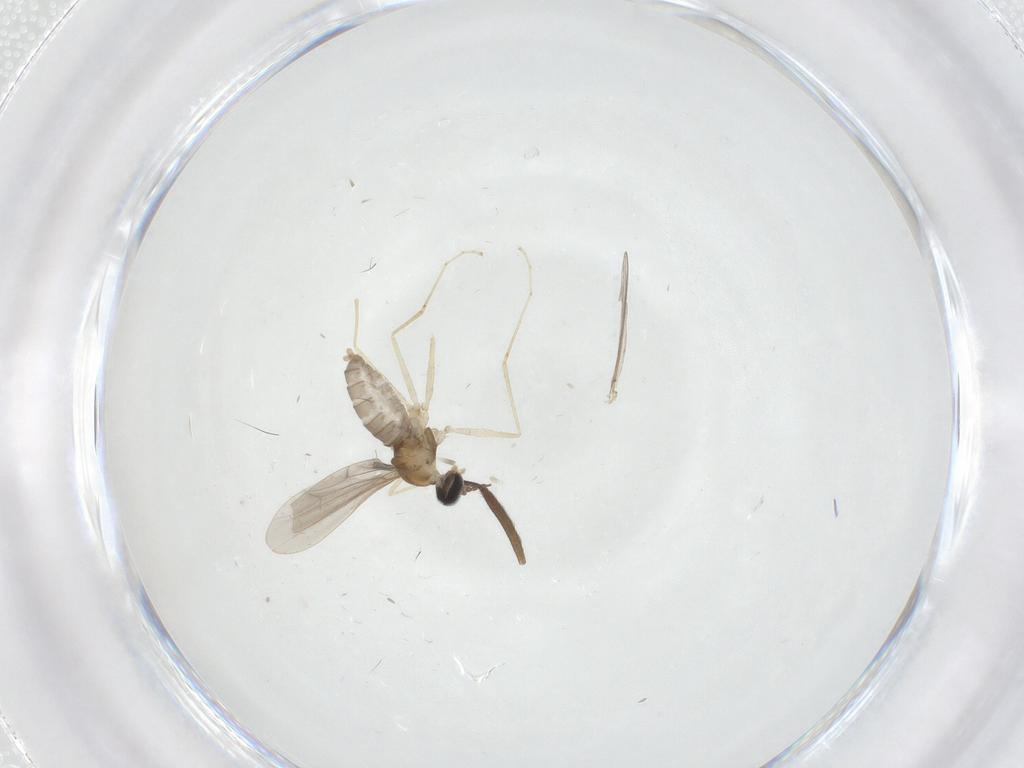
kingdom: Animalia
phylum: Arthropoda
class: Insecta
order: Diptera
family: Cecidomyiidae
